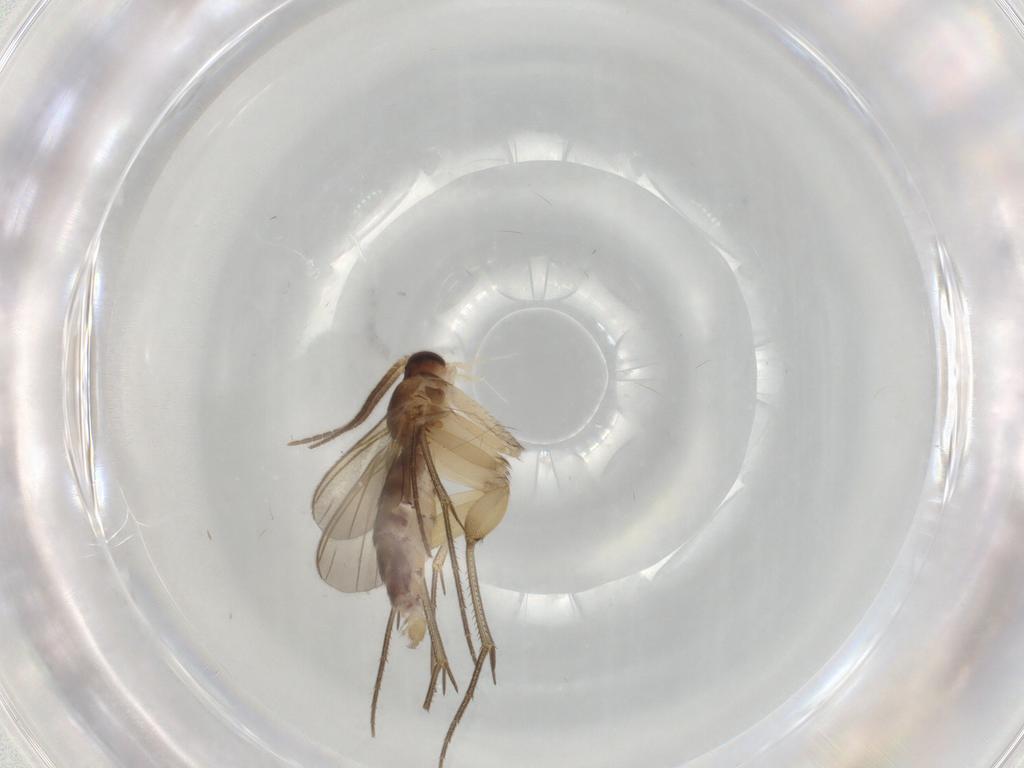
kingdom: Animalia
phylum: Arthropoda
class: Insecta
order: Diptera
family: Mycetophilidae
